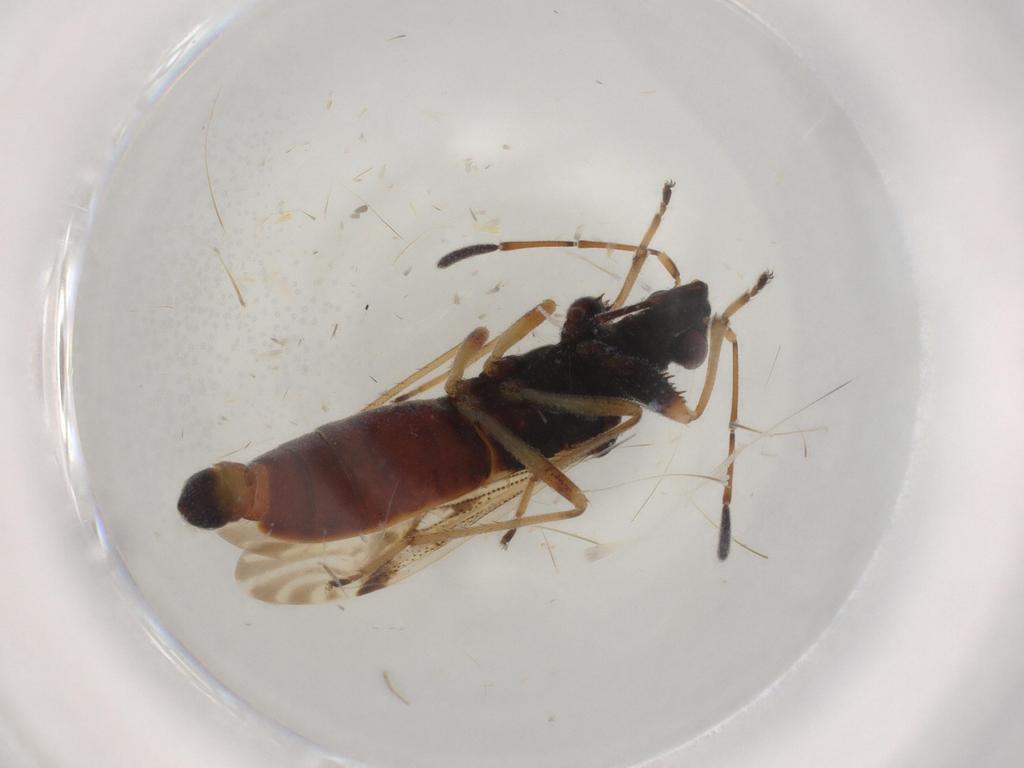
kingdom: Animalia
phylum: Arthropoda
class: Insecta
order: Hemiptera
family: Rhyparochromidae
